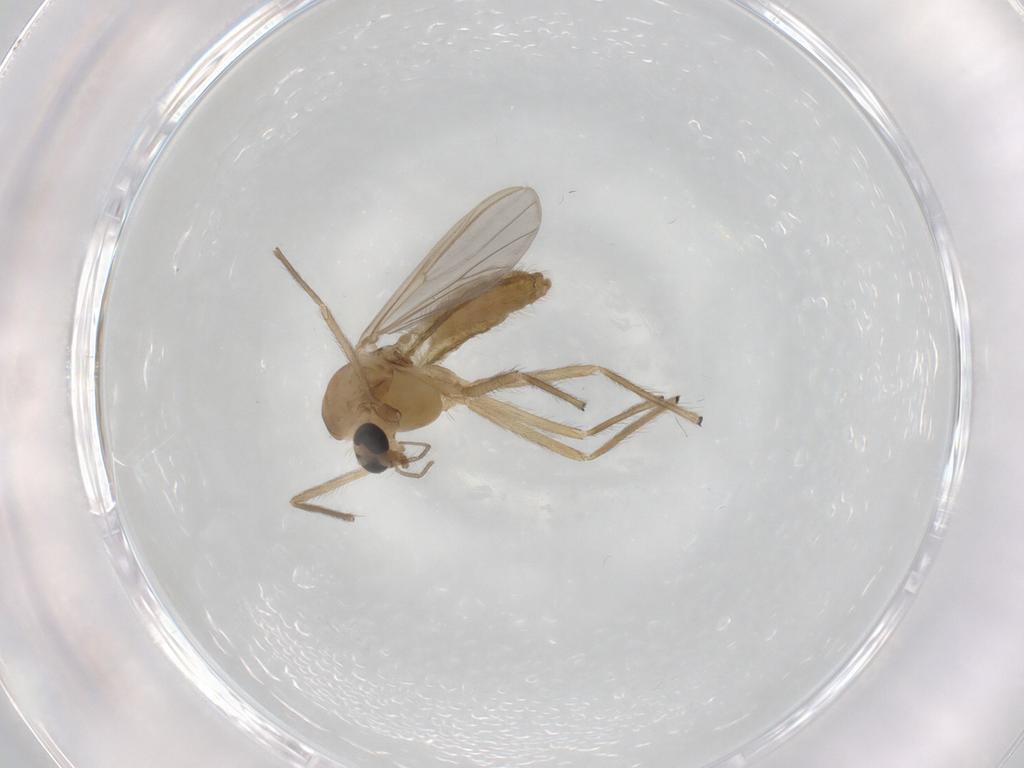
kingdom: Animalia
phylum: Arthropoda
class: Insecta
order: Diptera
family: Chironomidae
